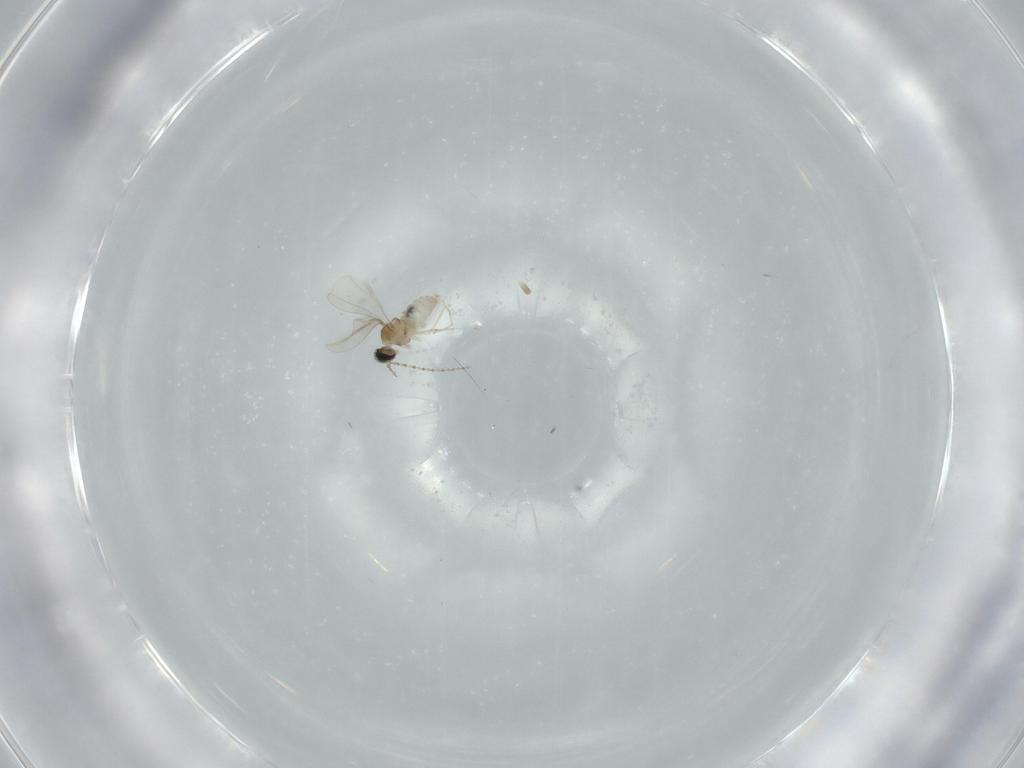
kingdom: Animalia
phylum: Arthropoda
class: Insecta
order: Diptera
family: Cecidomyiidae
